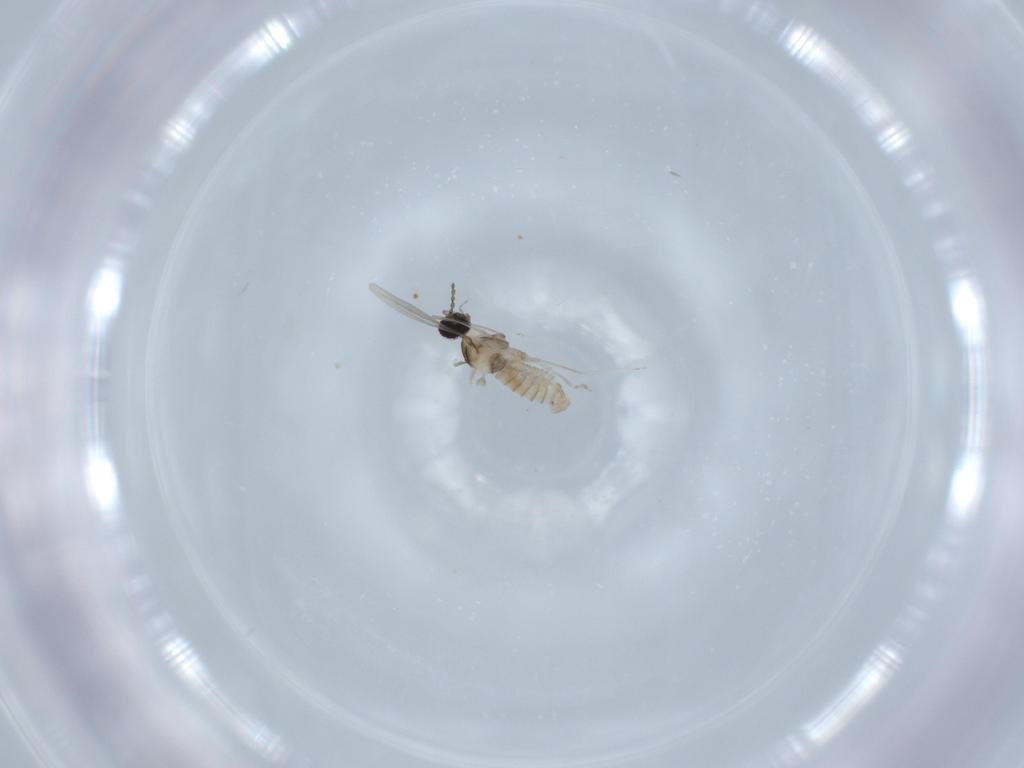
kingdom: Animalia
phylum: Arthropoda
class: Insecta
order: Diptera
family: Cecidomyiidae
